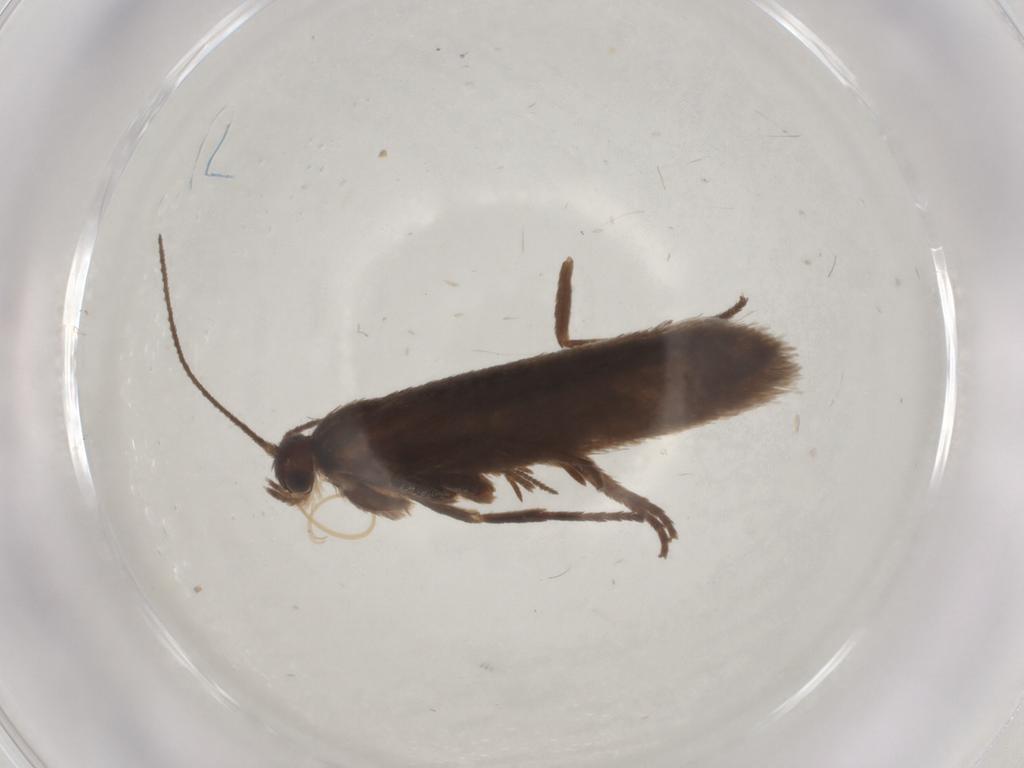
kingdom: Animalia
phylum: Arthropoda
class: Insecta
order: Lepidoptera
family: Limacodidae
